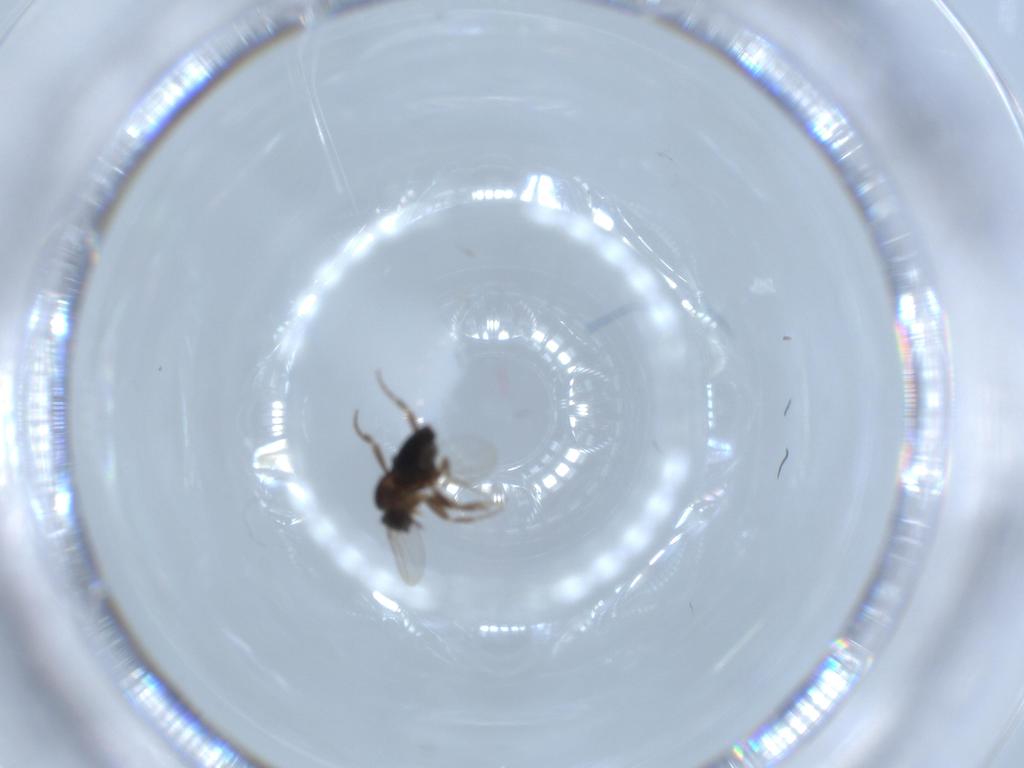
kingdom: Animalia
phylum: Arthropoda
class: Insecta
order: Diptera
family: Phoridae
